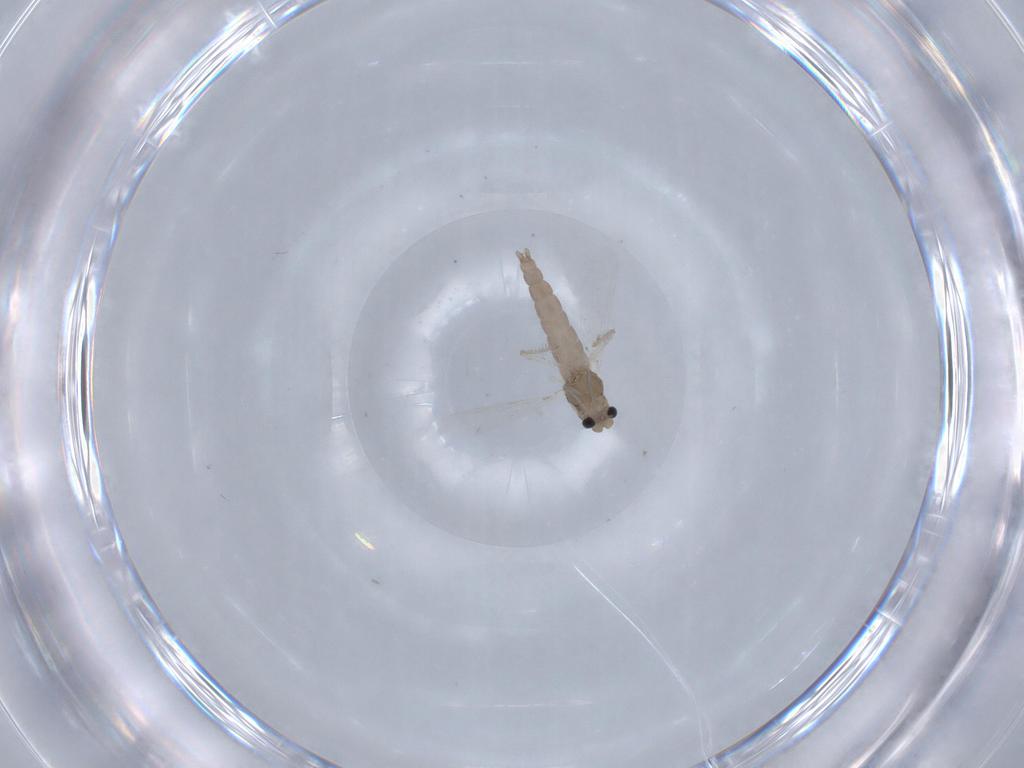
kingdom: Animalia
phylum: Arthropoda
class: Insecta
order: Diptera
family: Chironomidae
